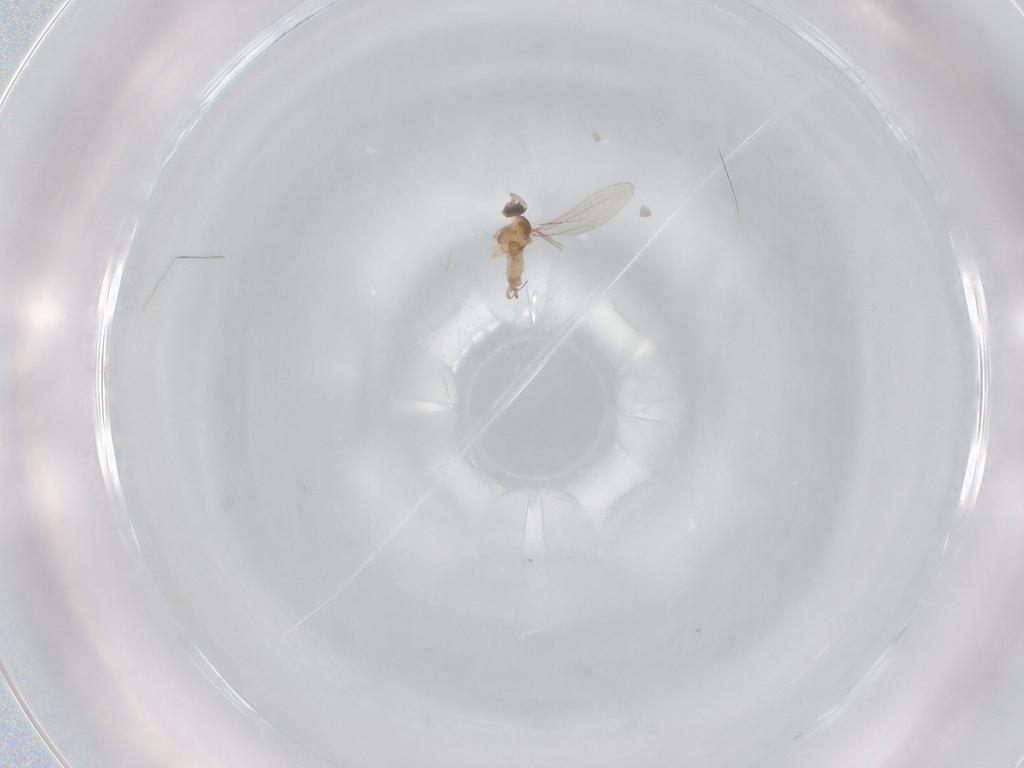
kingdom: Animalia
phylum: Arthropoda
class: Insecta
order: Diptera
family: Cecidomyiidae
